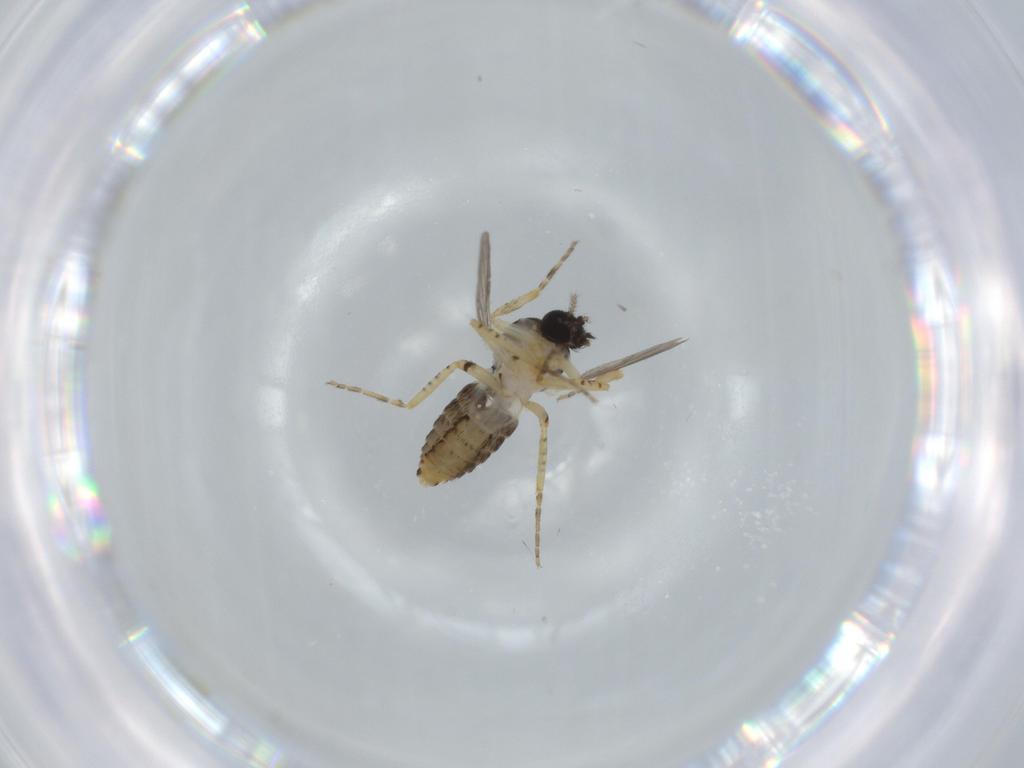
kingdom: Animalia
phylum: Arthropoda
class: Insecta
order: Diptera
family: Ceratopogonidae
